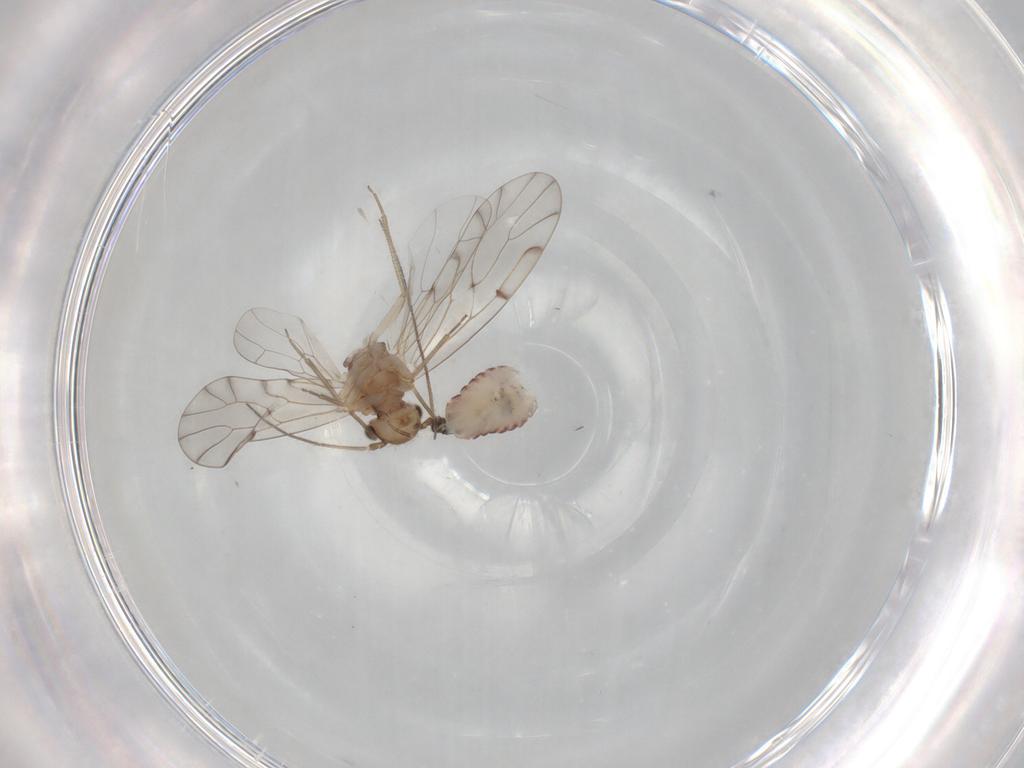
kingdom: Animalia
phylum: Arthropoda
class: Insecta
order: Psocodea
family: Ectopsocidae
